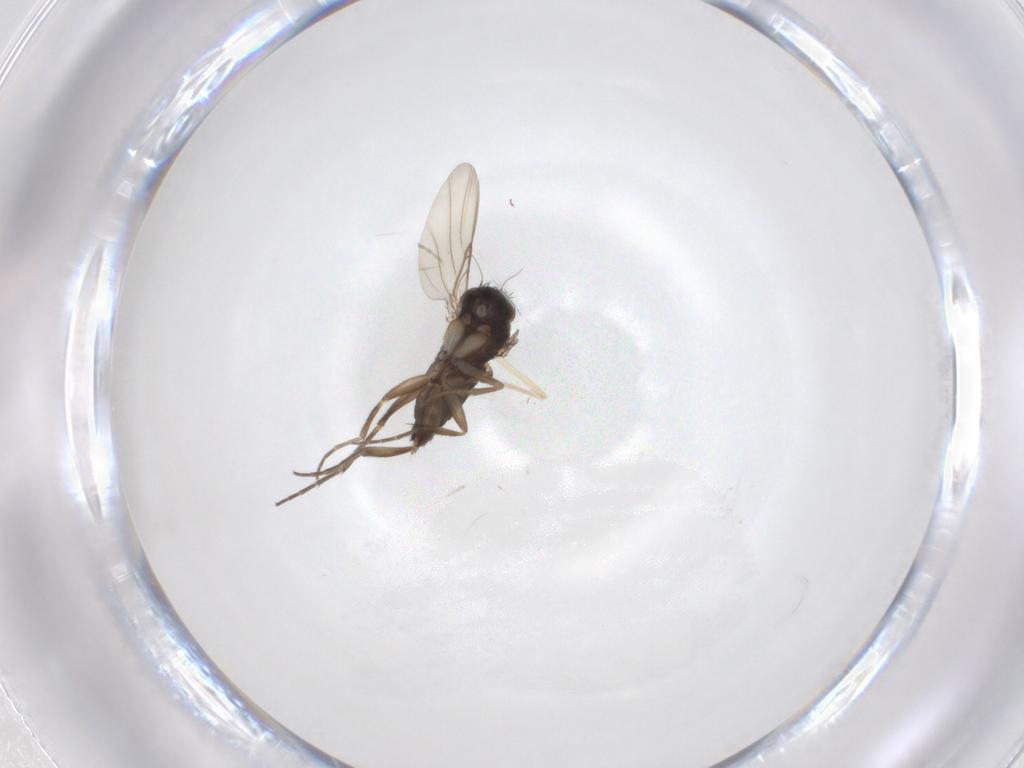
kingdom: Animalia
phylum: Arthropoda
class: Insecta
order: Diptera
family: Phoridae
